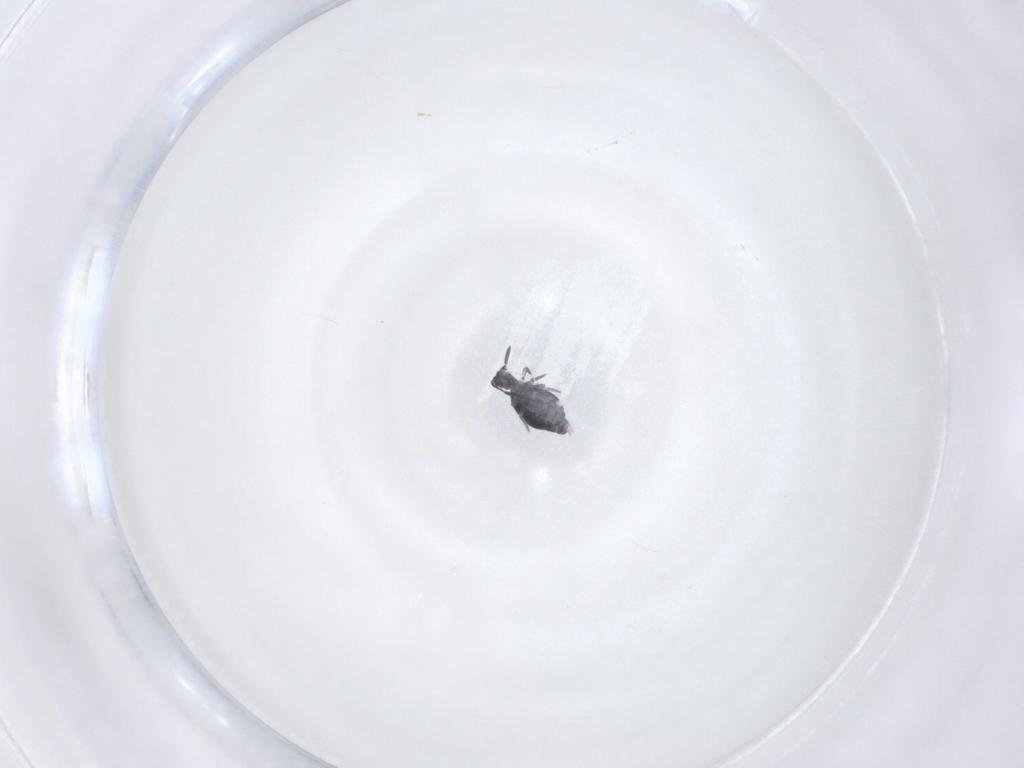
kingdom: Animalia
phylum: Arthropoda
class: Collembola
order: Symphypleona
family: Katiannidae
